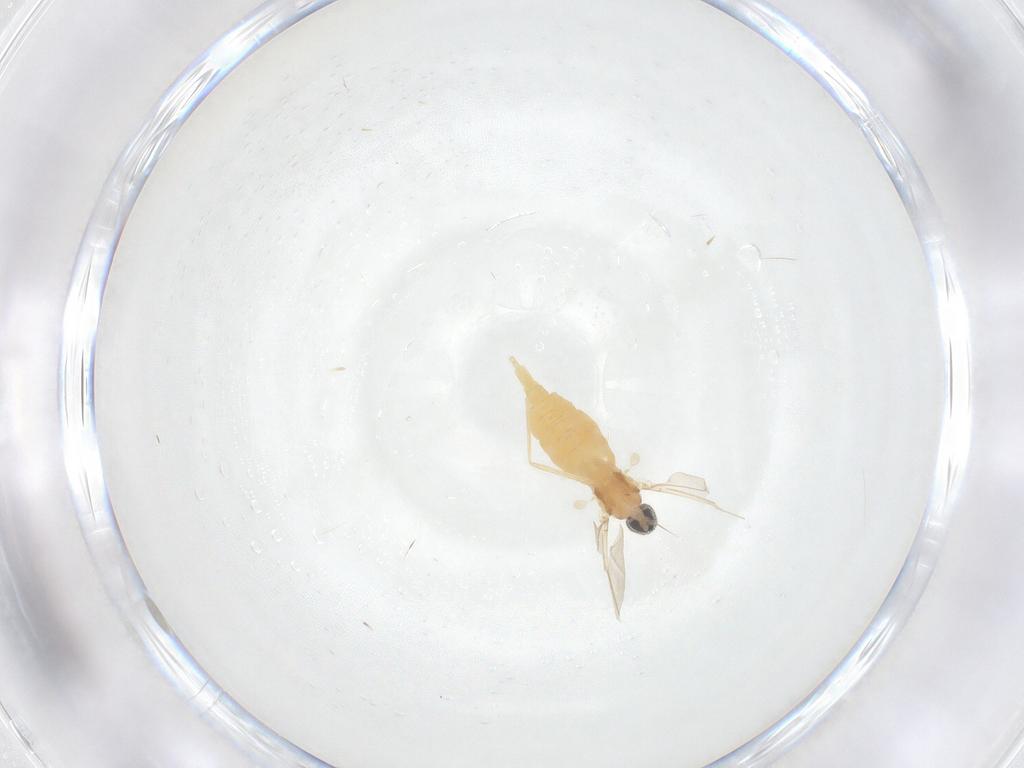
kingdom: Animalia
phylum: Arthropoda
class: Insecta
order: Diptera
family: Cecidomyiidae
